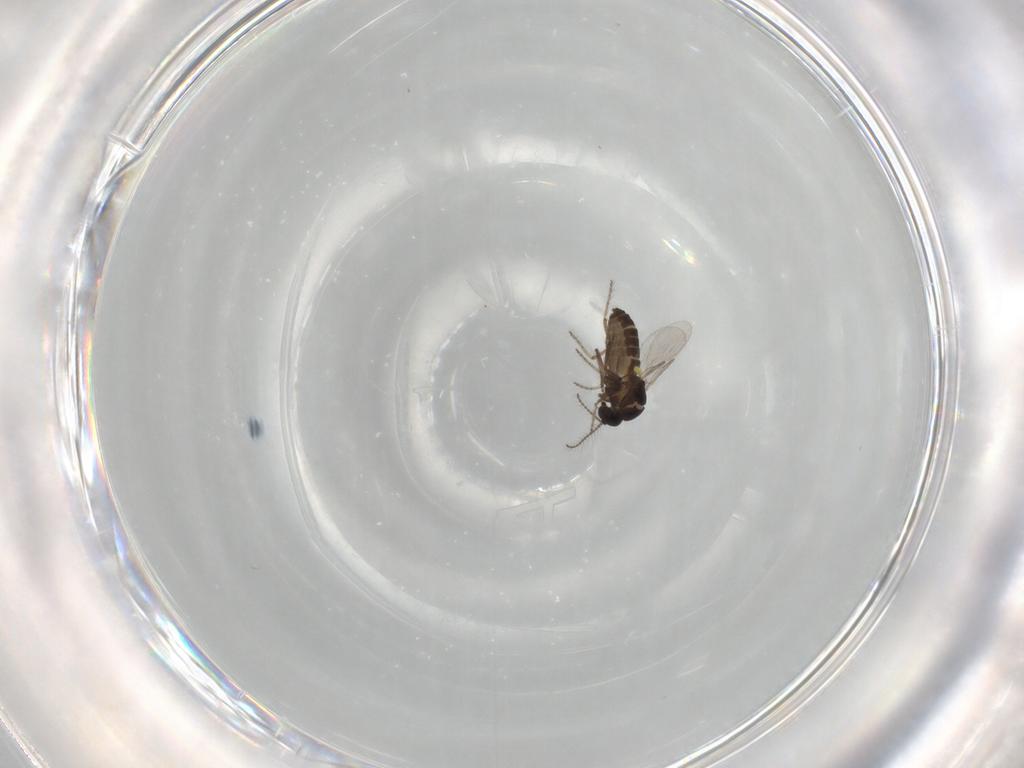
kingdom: Animalia
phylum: Arthropoda
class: Insecta
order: Diptera
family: Ceratopogonidae
